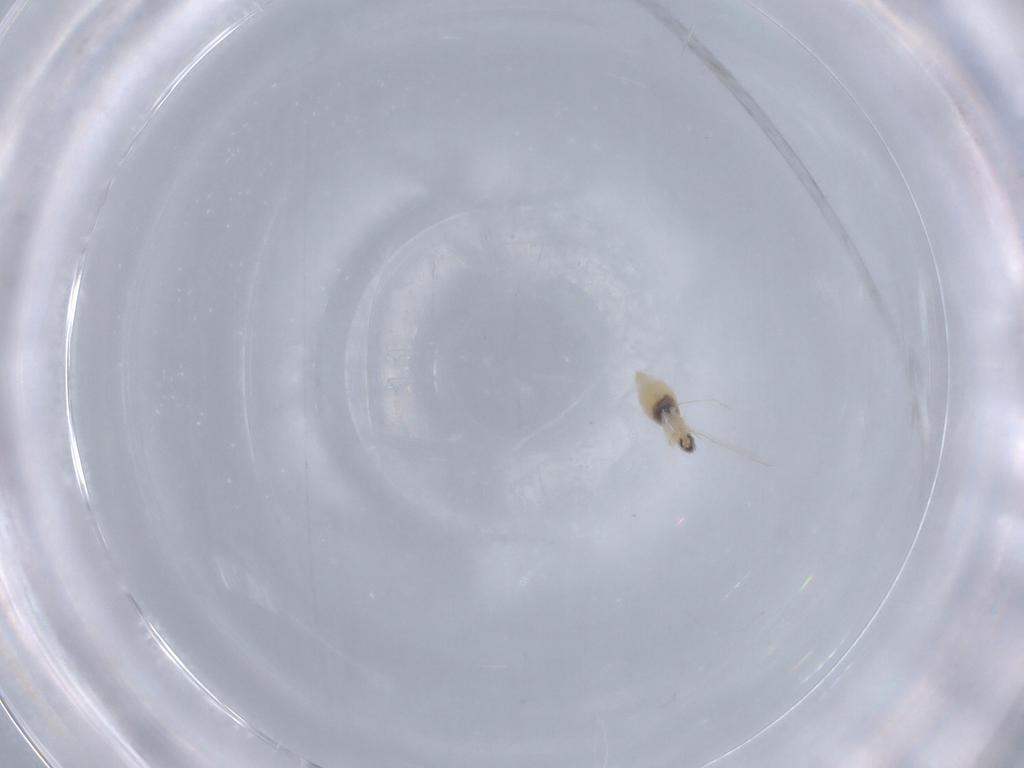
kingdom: Animalia
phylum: Arthropoda
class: Insecta
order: Diptera
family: Cecidomyiidae
